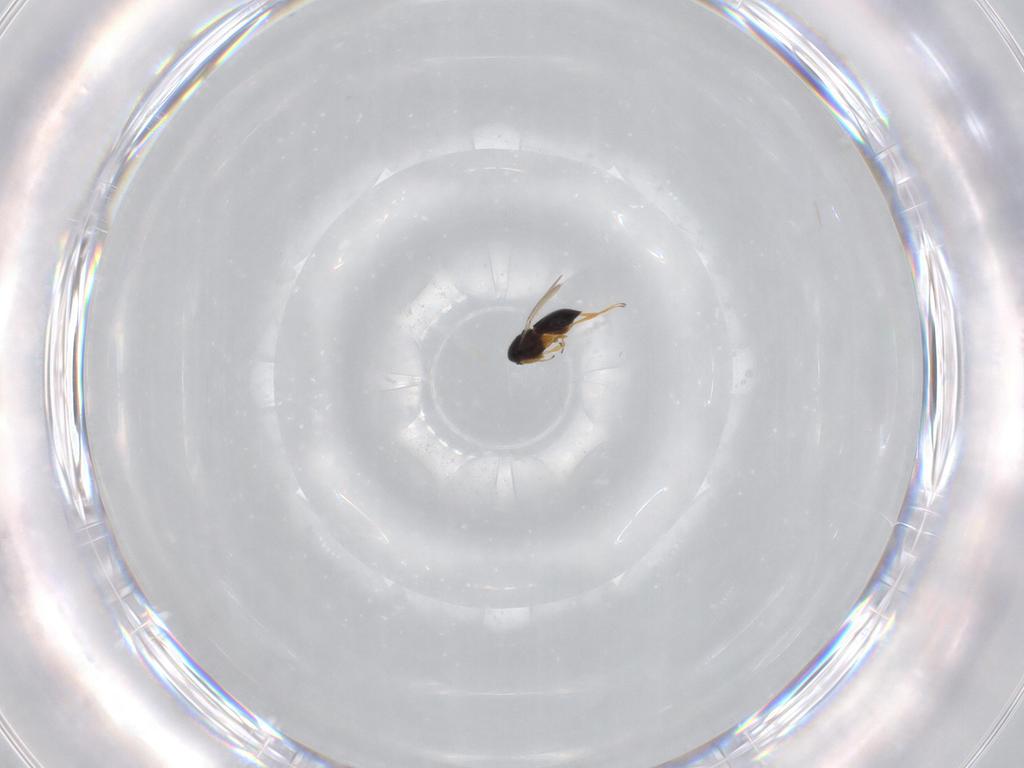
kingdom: Animalia
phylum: Arthropoda
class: Insecta
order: Hymenoptera
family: Scelionidae
